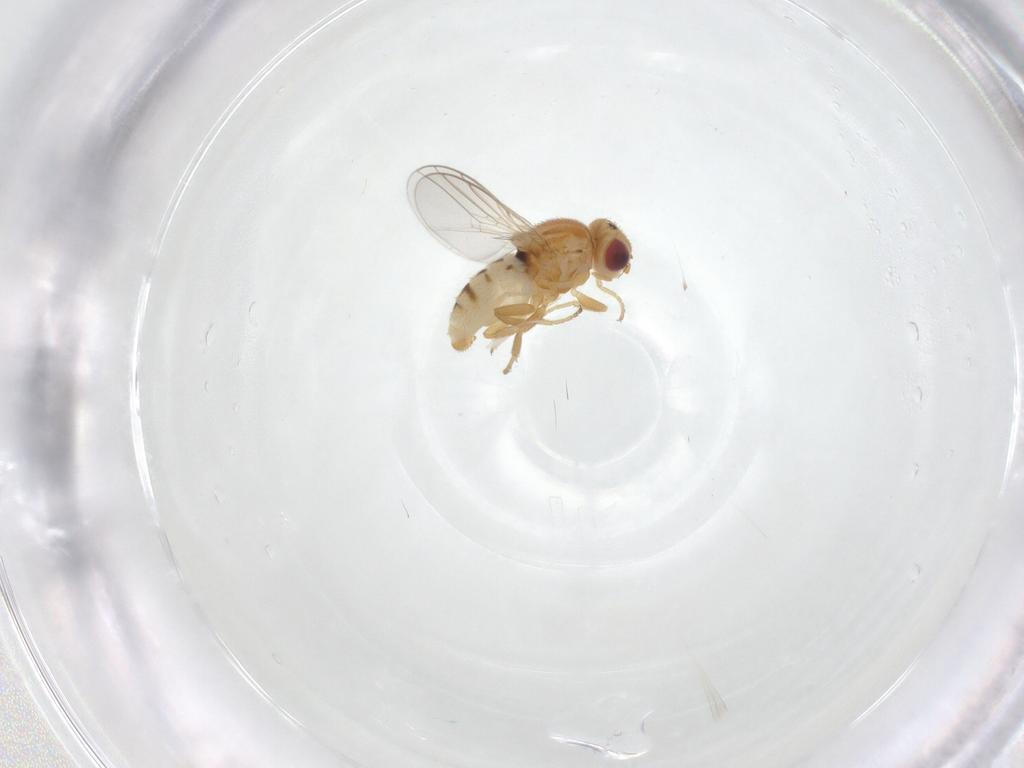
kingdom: Animalia
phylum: Arthropoda
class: Insecta
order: Diptera
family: Chloropidae
